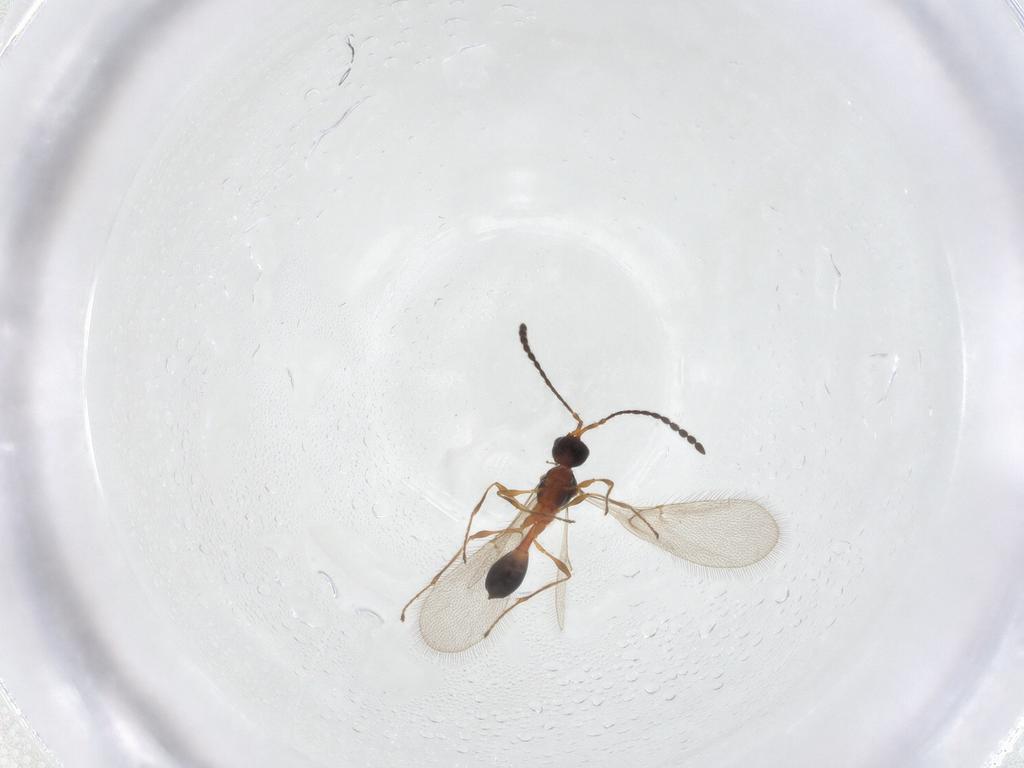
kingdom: Animalia
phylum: Arthropoda
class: Insecta
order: Hymenoptera
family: Diapriidae
